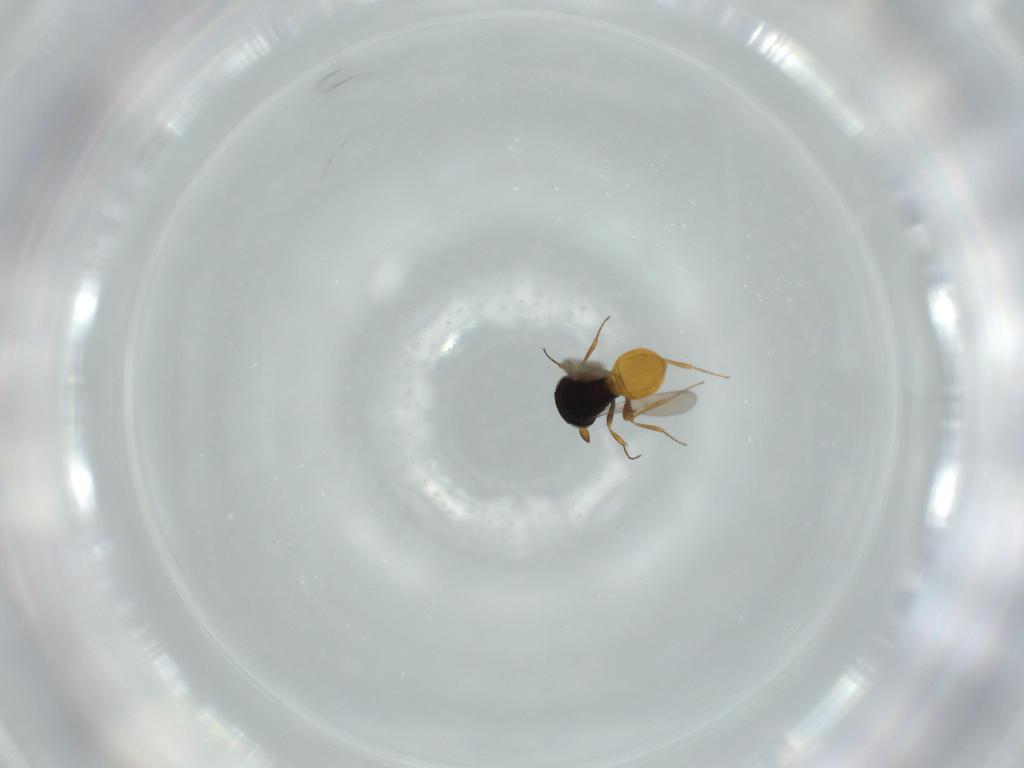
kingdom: Animalia
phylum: Arthropoda
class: Insecta
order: Hymenoptera
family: Scelionidae
